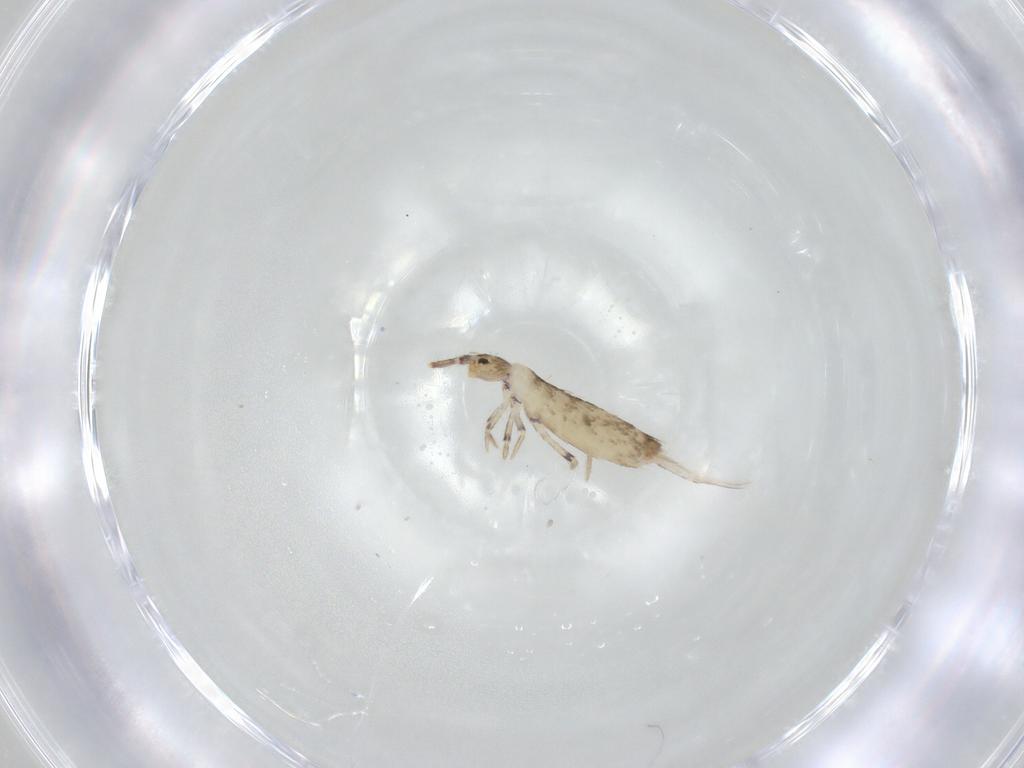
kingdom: Animalia
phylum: Arthropoda
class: Collembola
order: Entomobryomorpha
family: Entomobryidae
